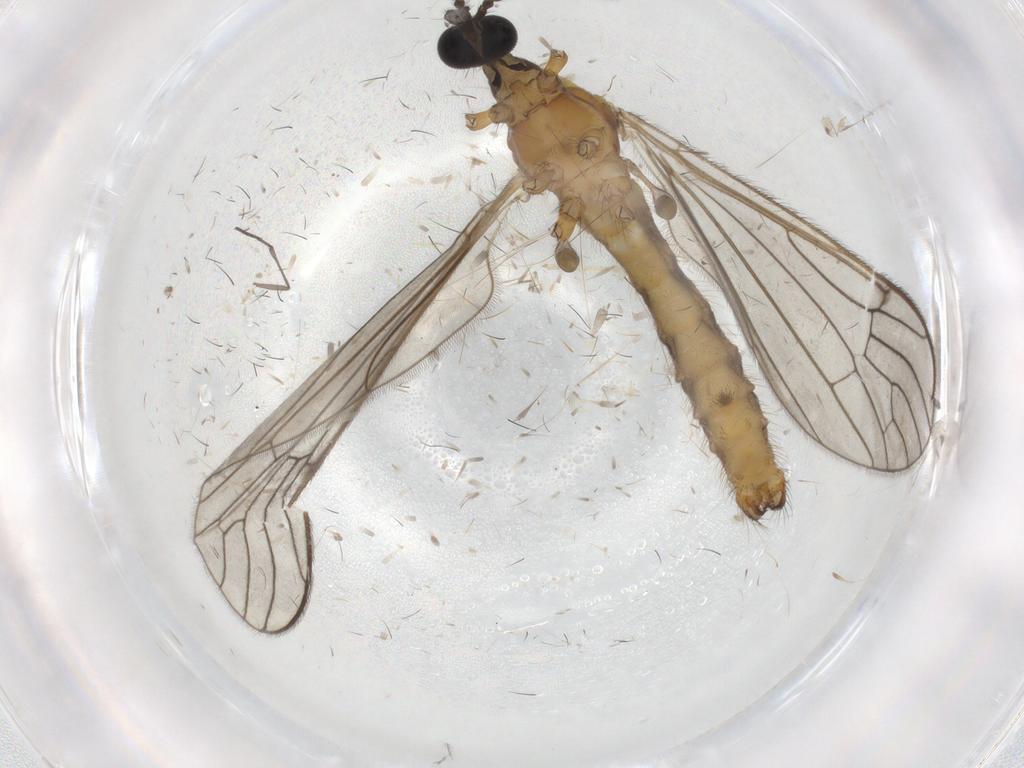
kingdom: Animalia
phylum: Arthropoda
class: Insecta
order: Diptera
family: Limoniidae
